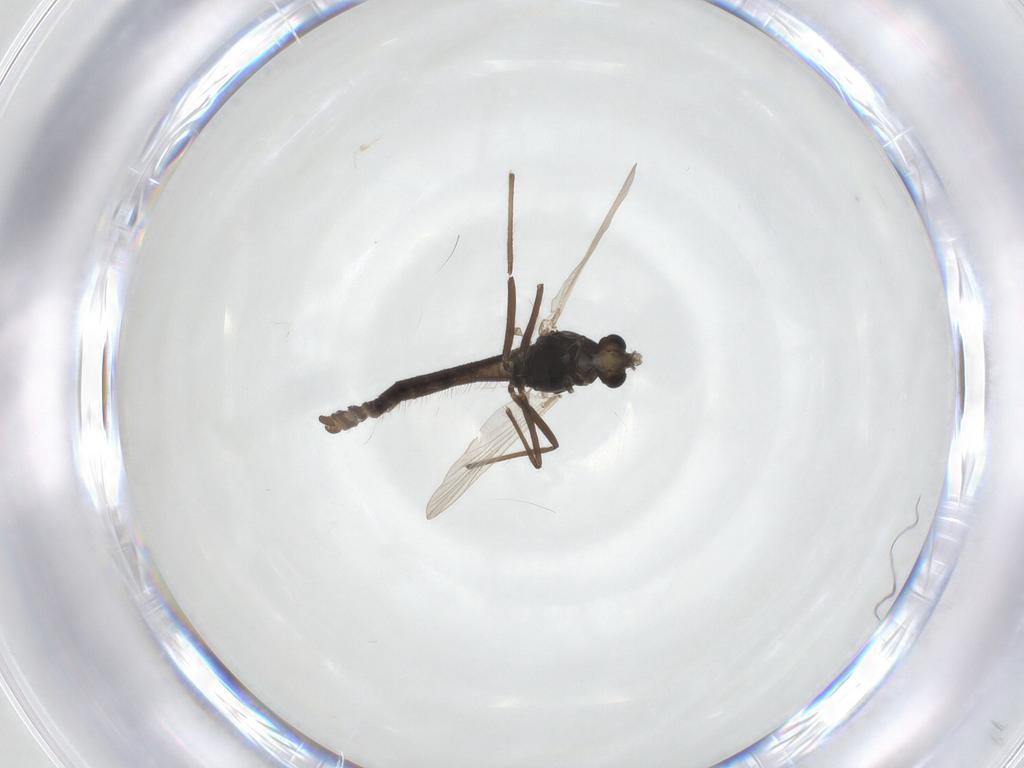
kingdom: Animalia
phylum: Arthropoda
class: Insecta
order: Diptera
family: Chironomidae
